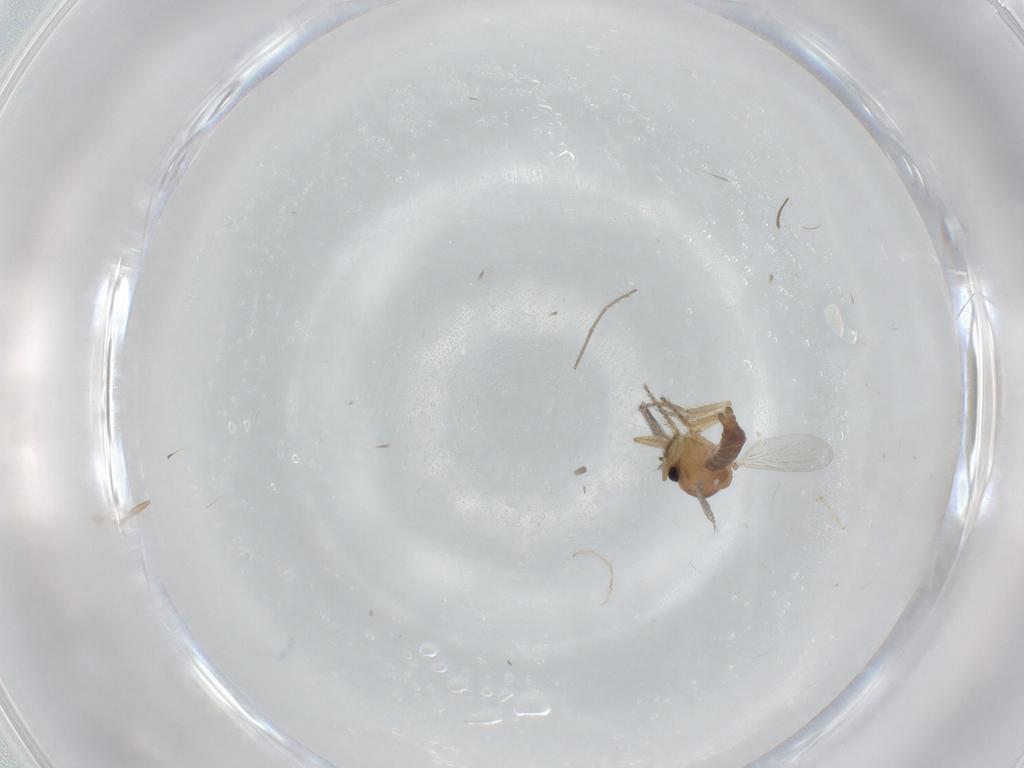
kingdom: Animalia
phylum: Arthropoda
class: Insecta
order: Diptera
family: Ceratopogonidae
